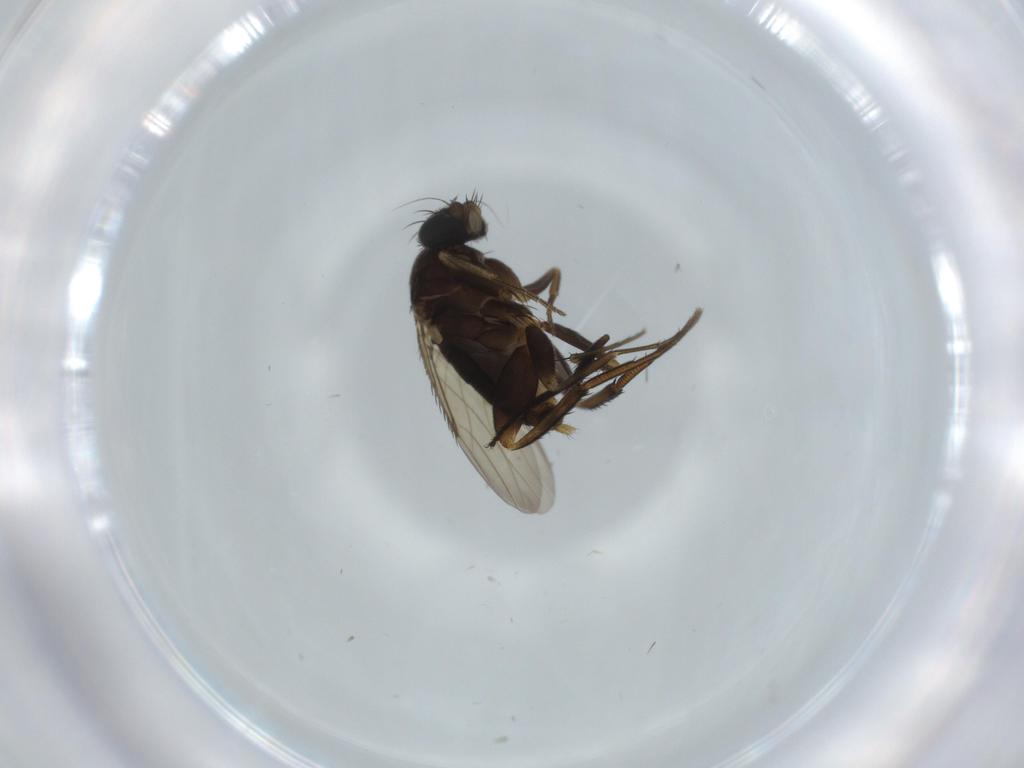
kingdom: Animalia
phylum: Arthropoda
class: Insecta
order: Diptera
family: Phoridae
